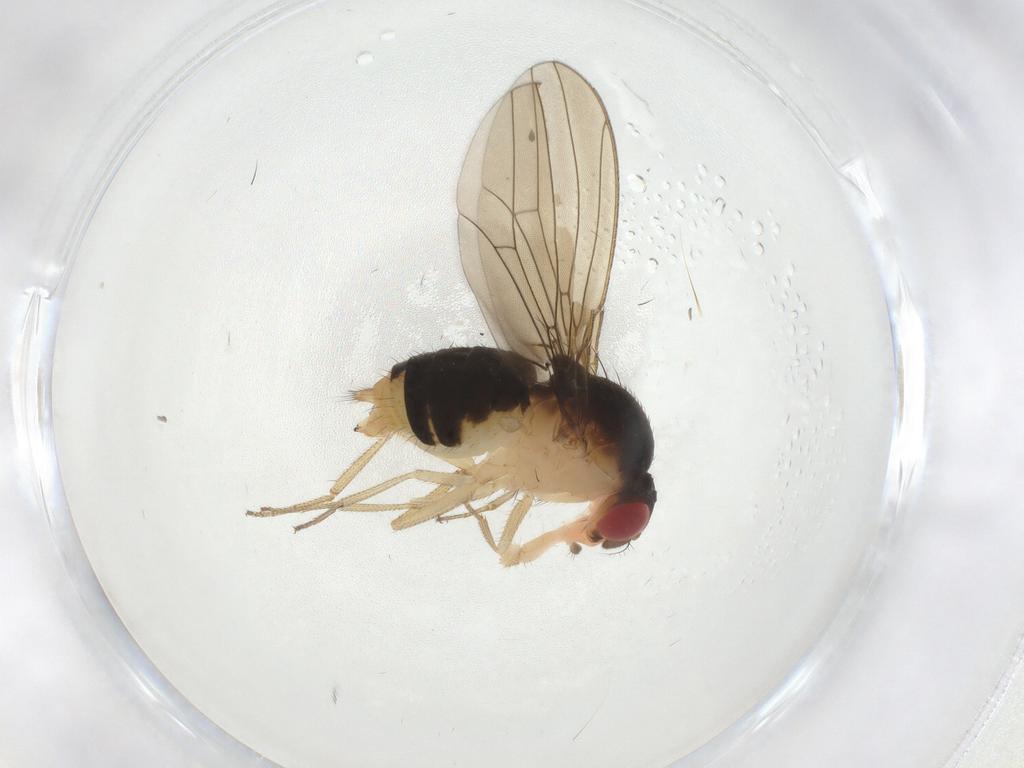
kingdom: Animalia
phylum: Arthropoda
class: Insecta
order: Diptera
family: Drosophilidae
